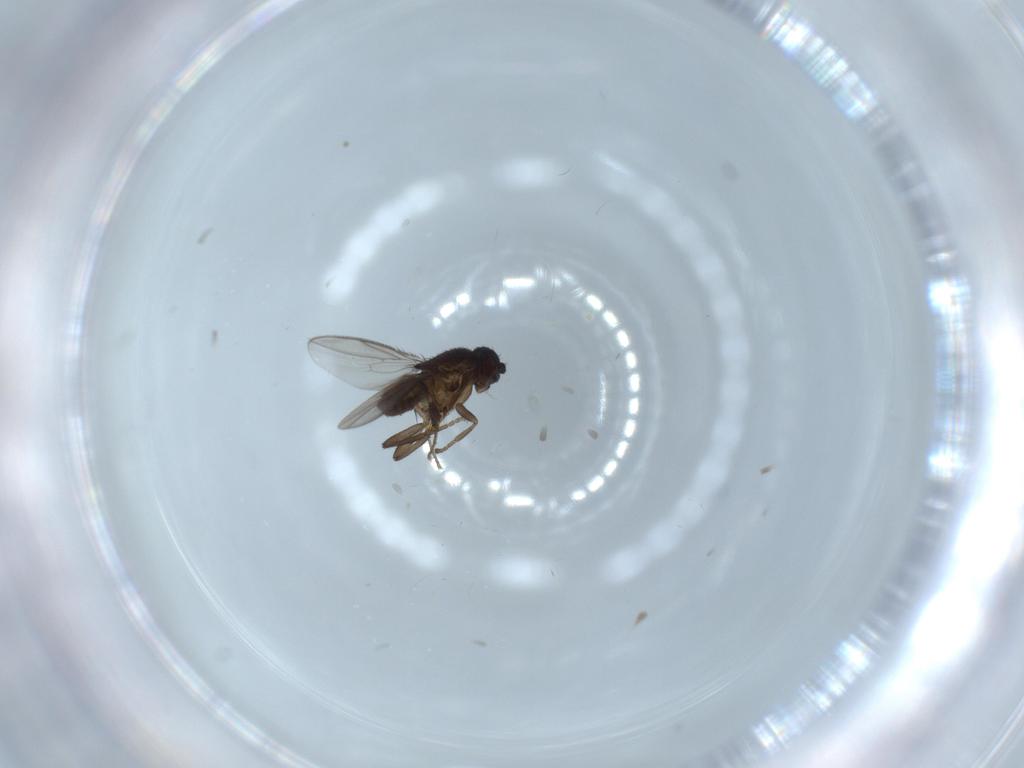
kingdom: Animalia
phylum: Arthropoda
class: Insecta
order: Diptera
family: Sphaeroceridae
